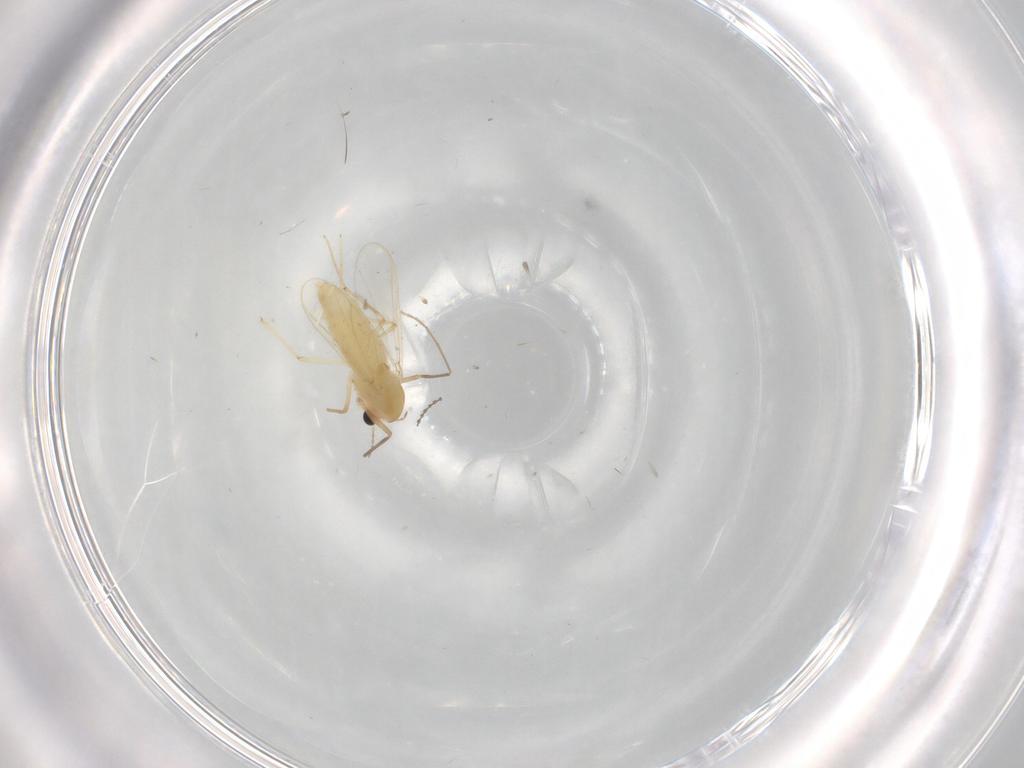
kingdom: Animalia
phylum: Arthropoda
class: Insecta
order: Diptera
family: Chironomidae
